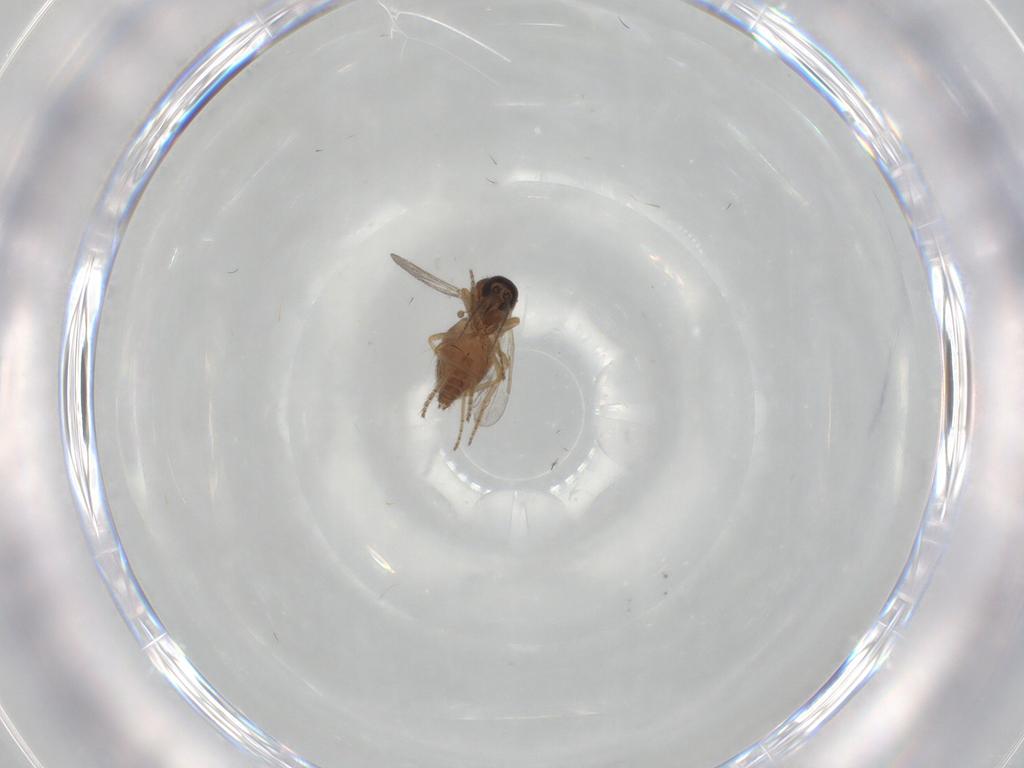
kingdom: Animalia
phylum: Arthropoda
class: Insecta
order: Diptera
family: Ceratopogonidae
